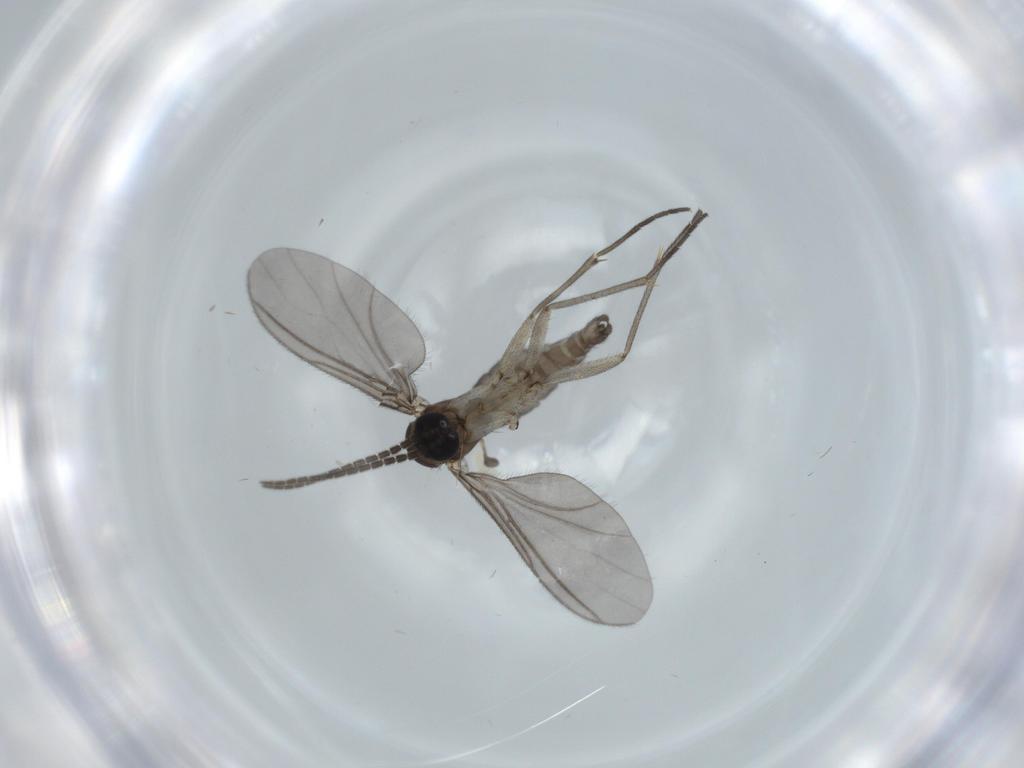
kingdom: Animalia
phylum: Arthropoda
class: Insecta
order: Diptera
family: Sciaridae
